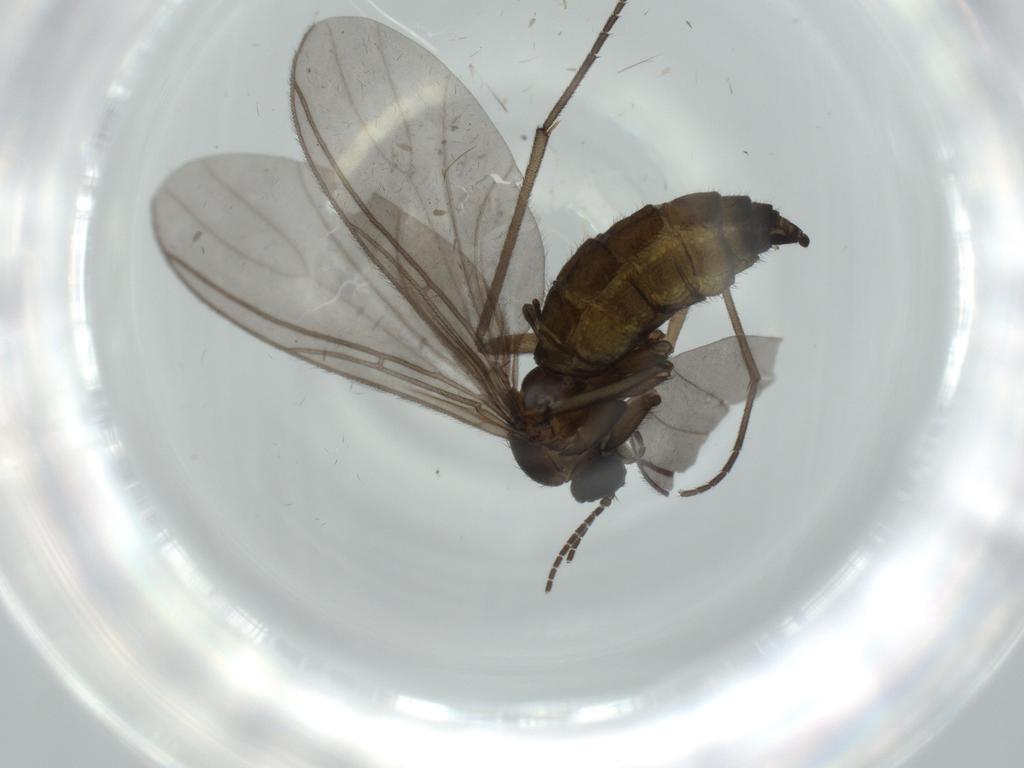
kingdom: Animalia
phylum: Arthropoda
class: Insecta
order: Diptera
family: Sciaridae
